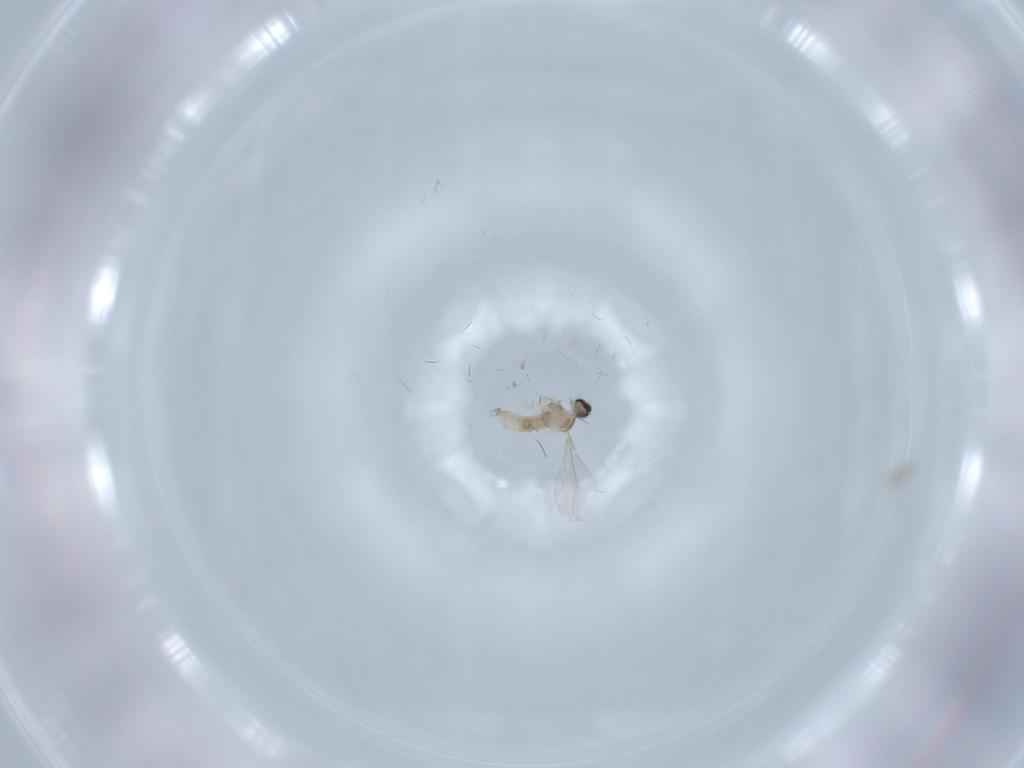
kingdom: Animalia
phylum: Arthropoda
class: Insecta
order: Diptera
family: Cecidomyiidae
